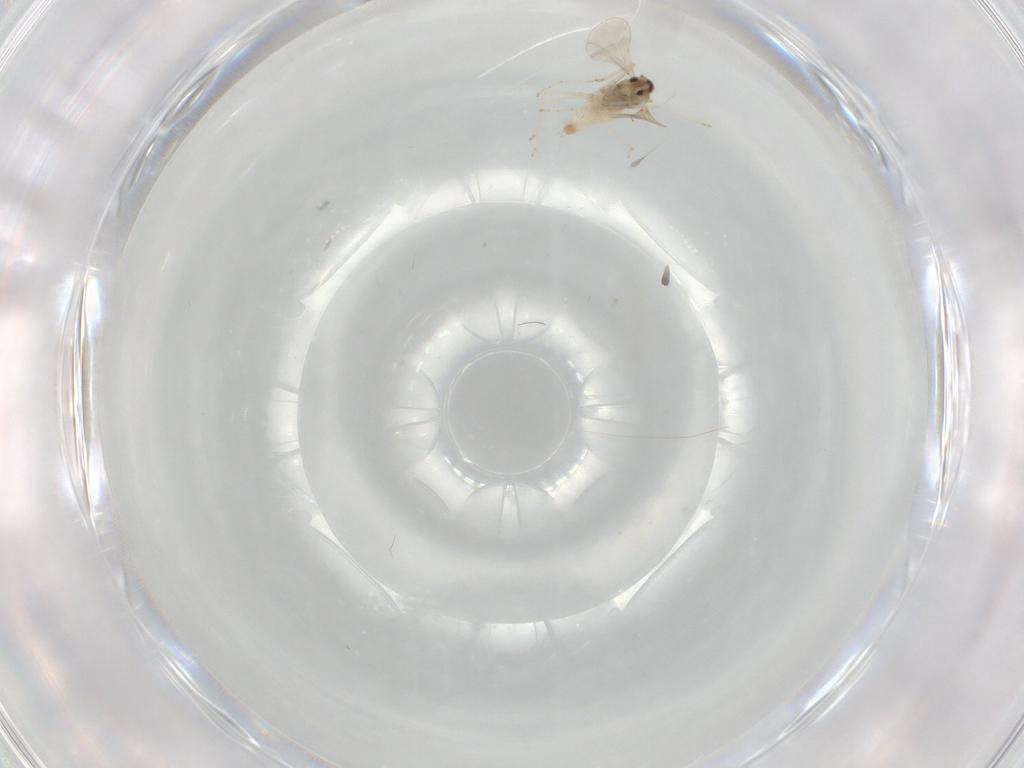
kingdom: Animalia
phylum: Arthropoda
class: Insecta
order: Diptera
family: Cecidomyiidae
